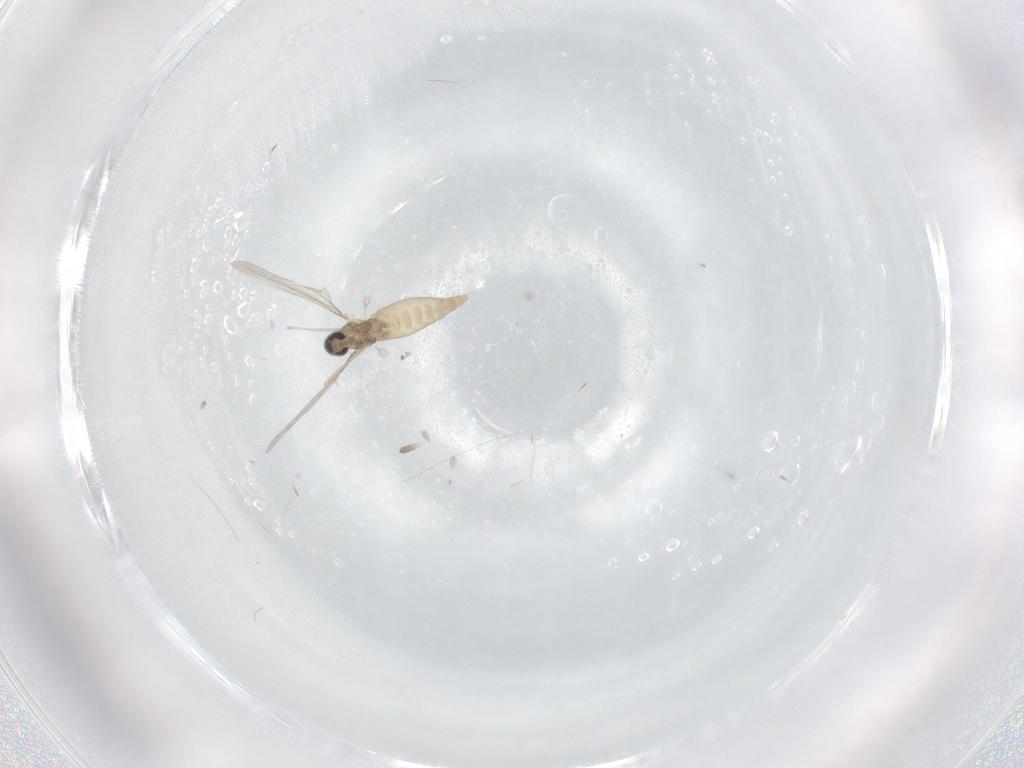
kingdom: Animalia
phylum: Arthropoda
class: Insecta
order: Diptera
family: Cecidomyiidae
